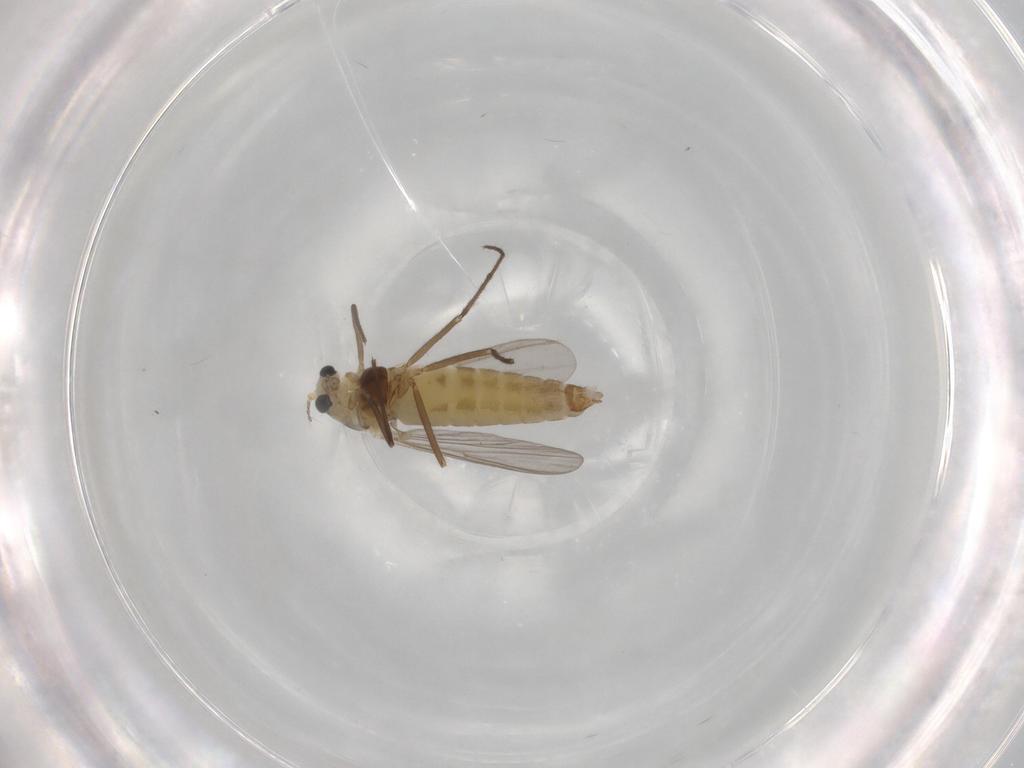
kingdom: Animalia
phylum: Arthropoda
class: Insecta
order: Diptera
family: Chironomidae
